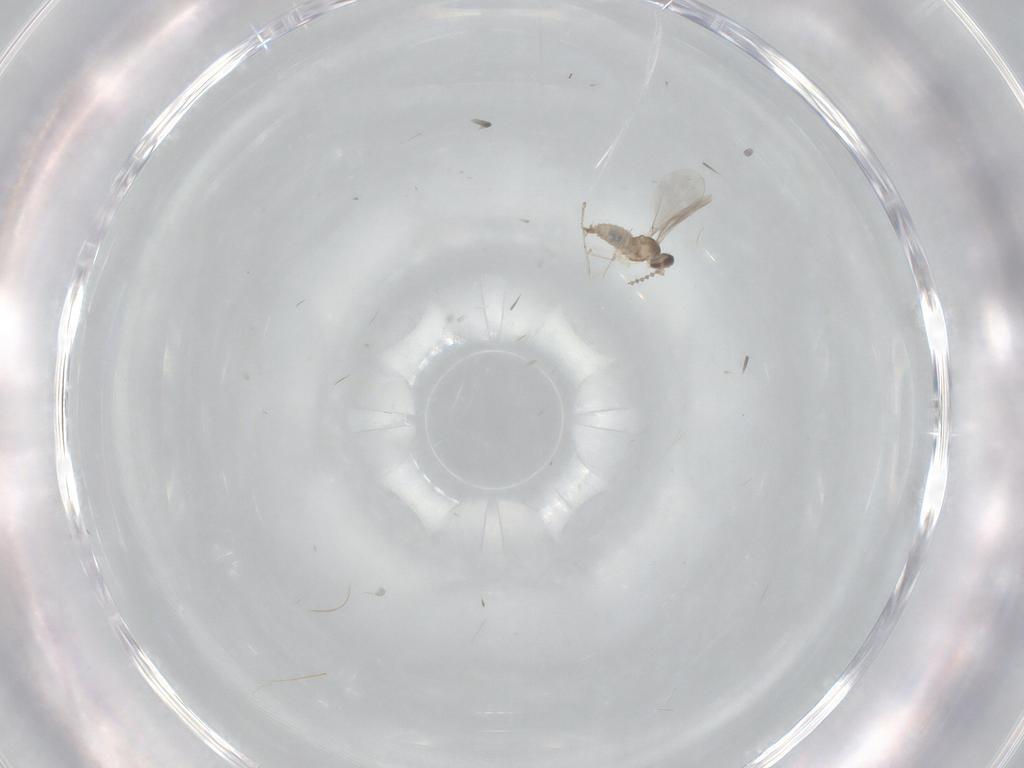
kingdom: Animalia
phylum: Arthropoda
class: Insecta
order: Diptera
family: Cecidomyiidae
